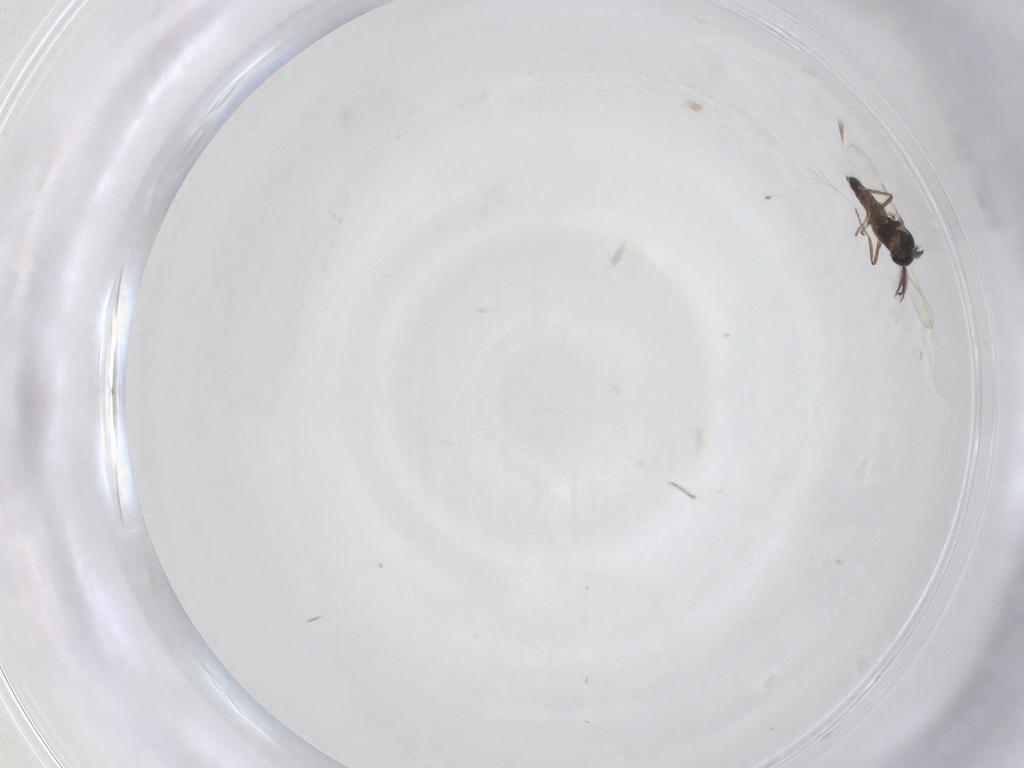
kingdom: Animalia
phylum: Arthropoda
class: Insecta
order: Diptera
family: Ceratopogonidae
